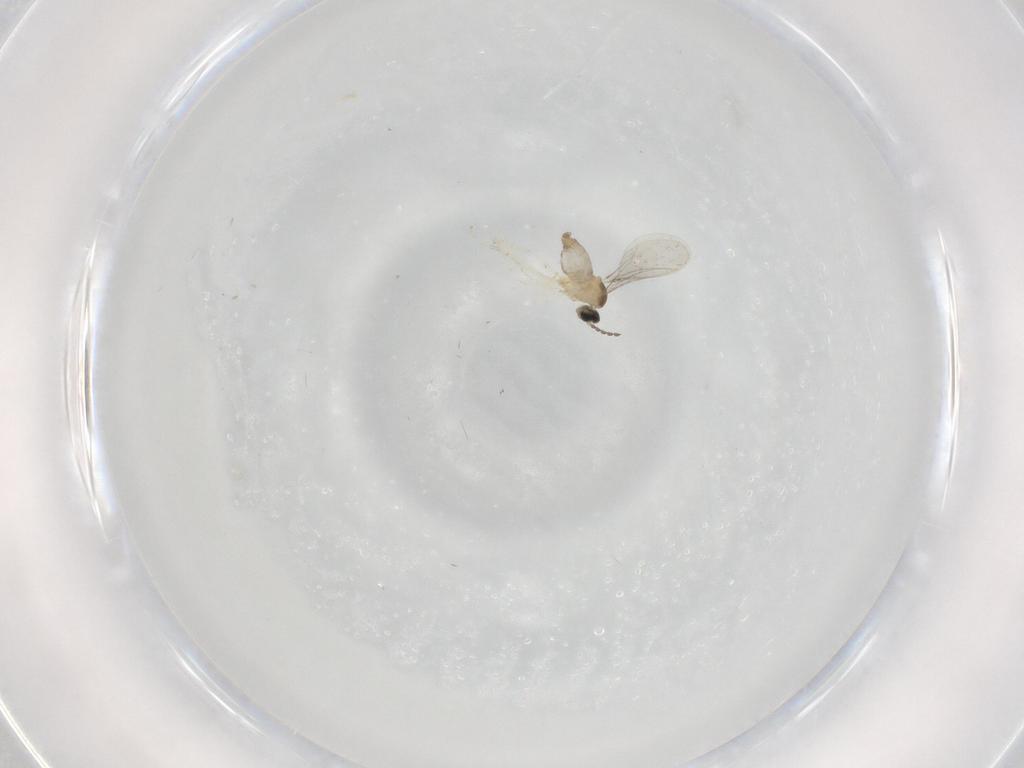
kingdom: Animalia
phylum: Arthropoda
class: Insecta
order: Diptera
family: Cecidomyiidae
